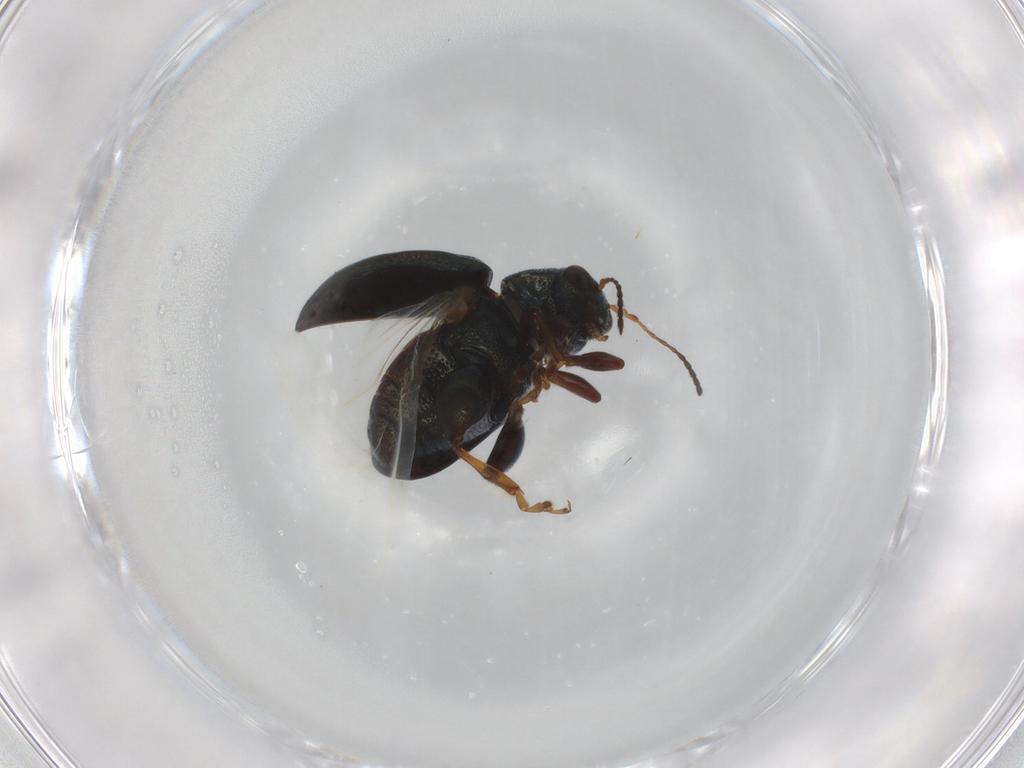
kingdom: Animalia
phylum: Arthropoda
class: Insecta
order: Coleoptera
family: Chrysomelidae
